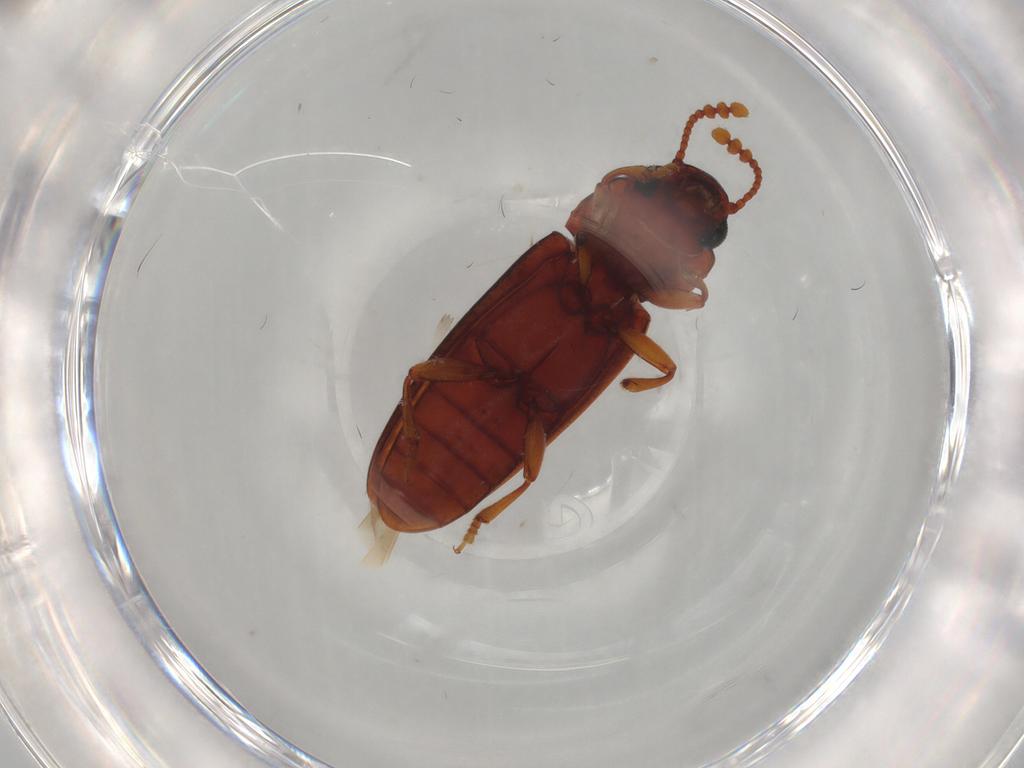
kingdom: Animalia
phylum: Arthropoda
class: Insecta
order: Coleoptera
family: Erotylidae
